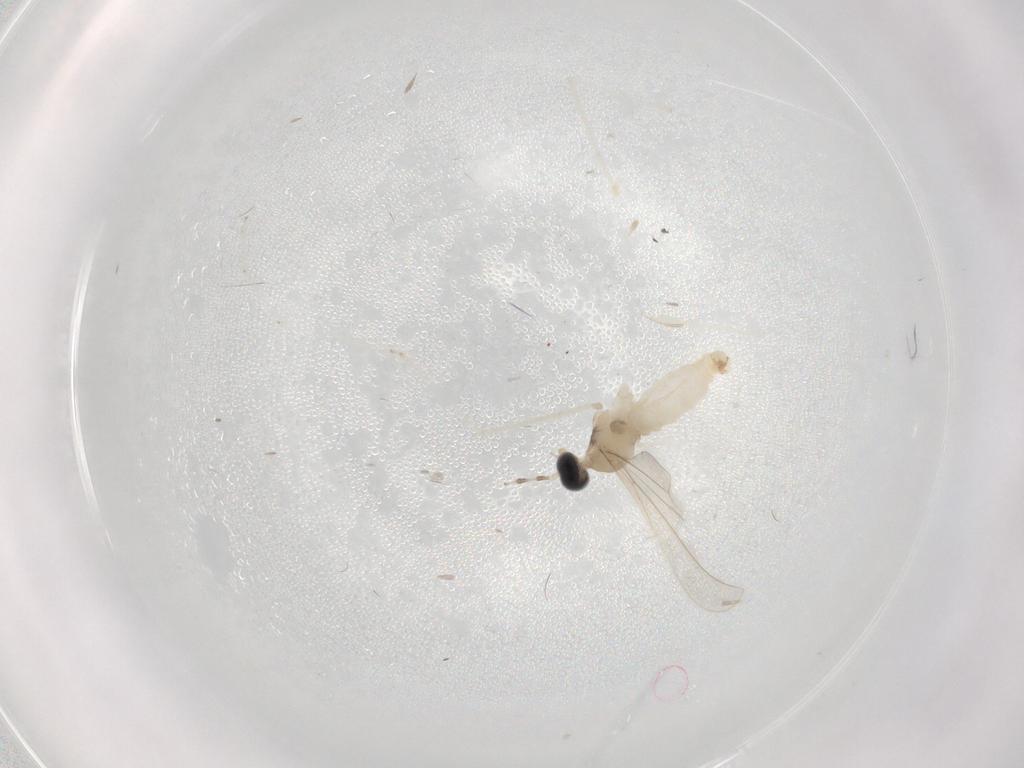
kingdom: Animalia
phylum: Arthropoda
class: Insecta
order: Diptera
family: Cecidomyiidae
